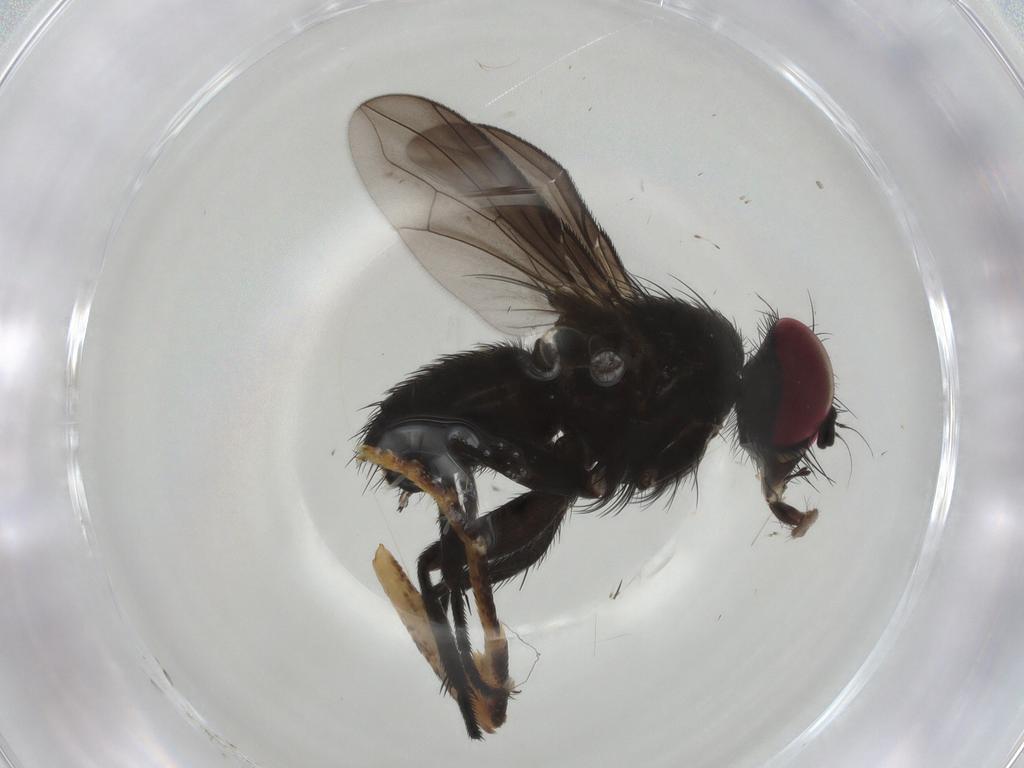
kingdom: Animalia
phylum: Arthropoda
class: Insecta
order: Diptera
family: Calliphoridae
